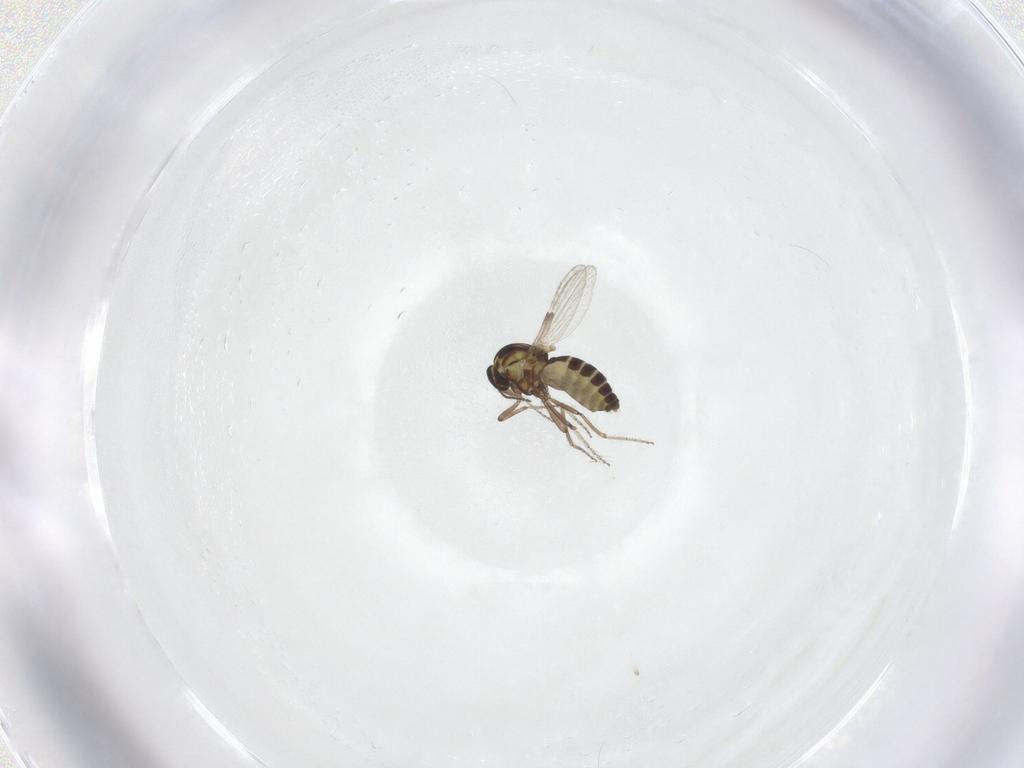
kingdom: Animalia
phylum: Arthropoda
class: Insecta
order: Diptera
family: Ceratopogonidae
